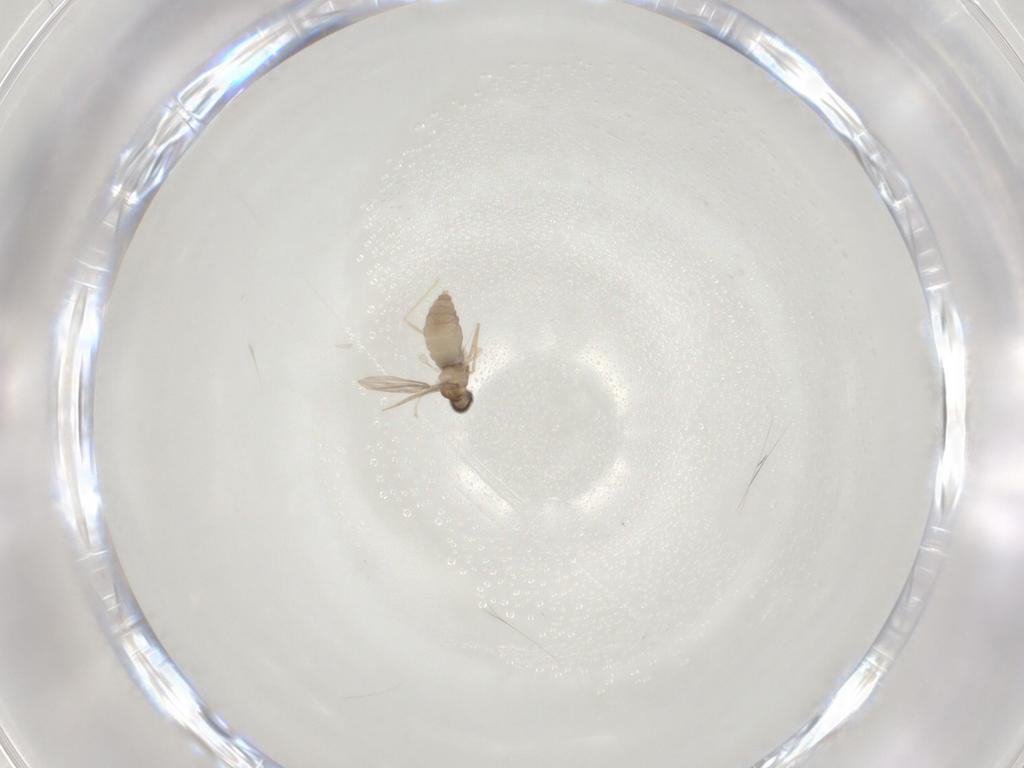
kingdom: Animalia
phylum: Arthropoda
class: Insecta
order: Diptera
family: Cecidomyiidae
